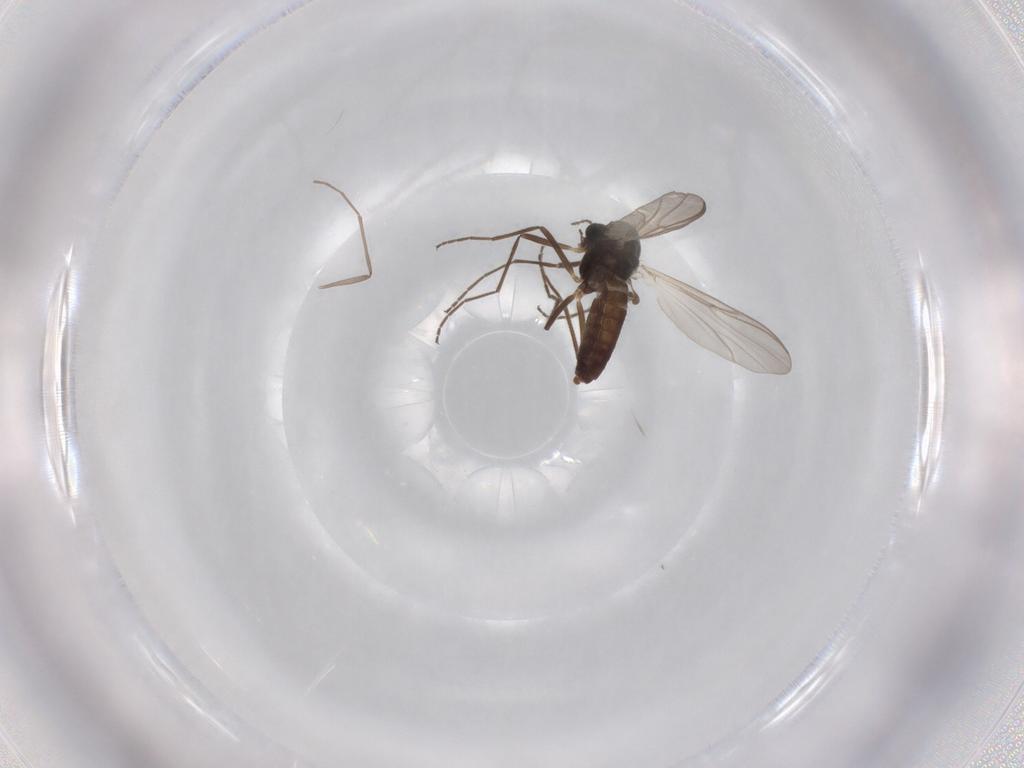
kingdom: Animalia
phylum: Arthropoda
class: Insecta
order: Diptera
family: Chironomidae
